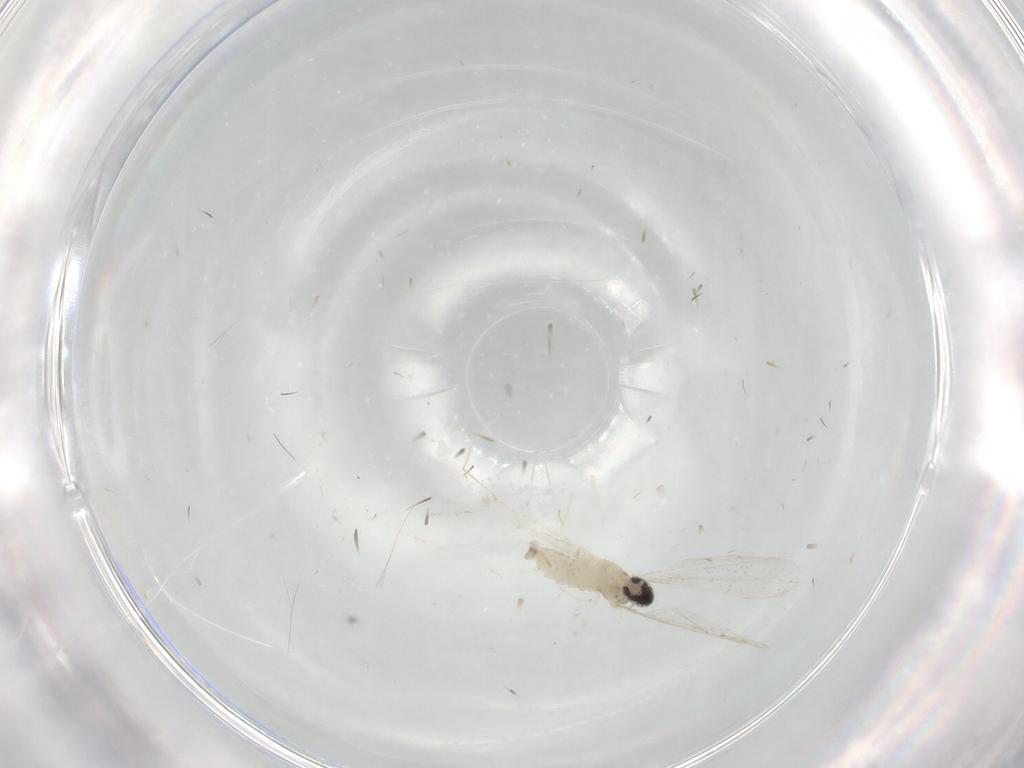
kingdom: Animalia
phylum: Arthropoda
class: Insecta
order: Diptera
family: Cecidomyiidae
